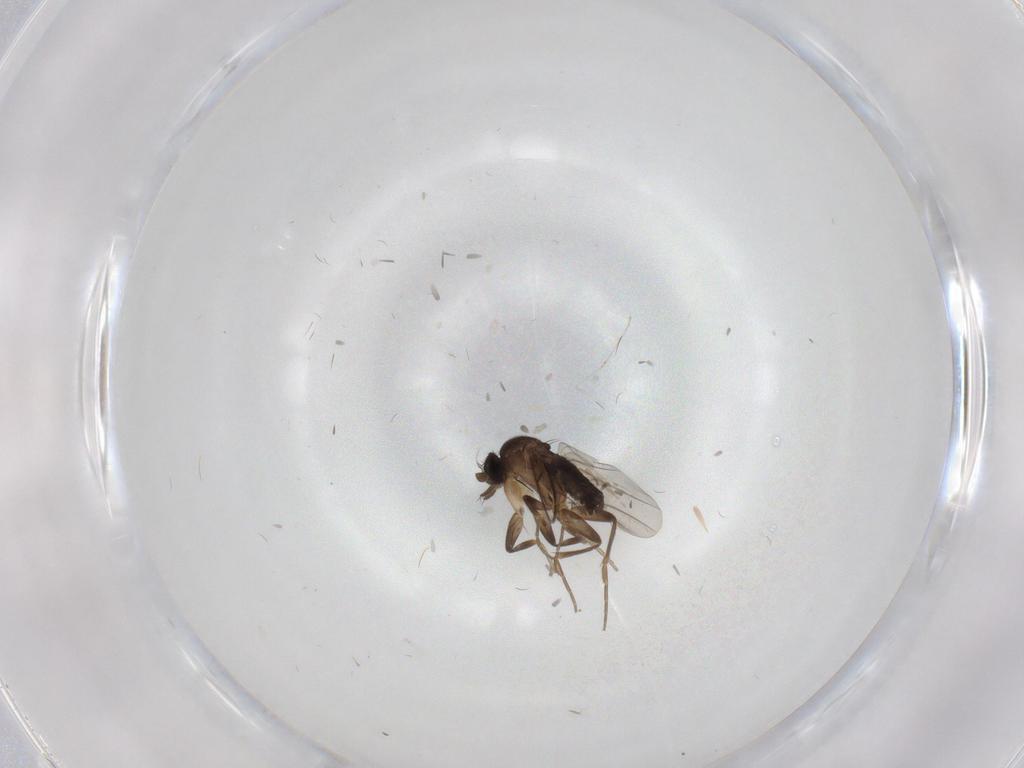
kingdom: Animalia
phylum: Arthropoda
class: Insecta
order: Diptera
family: Phoridae
